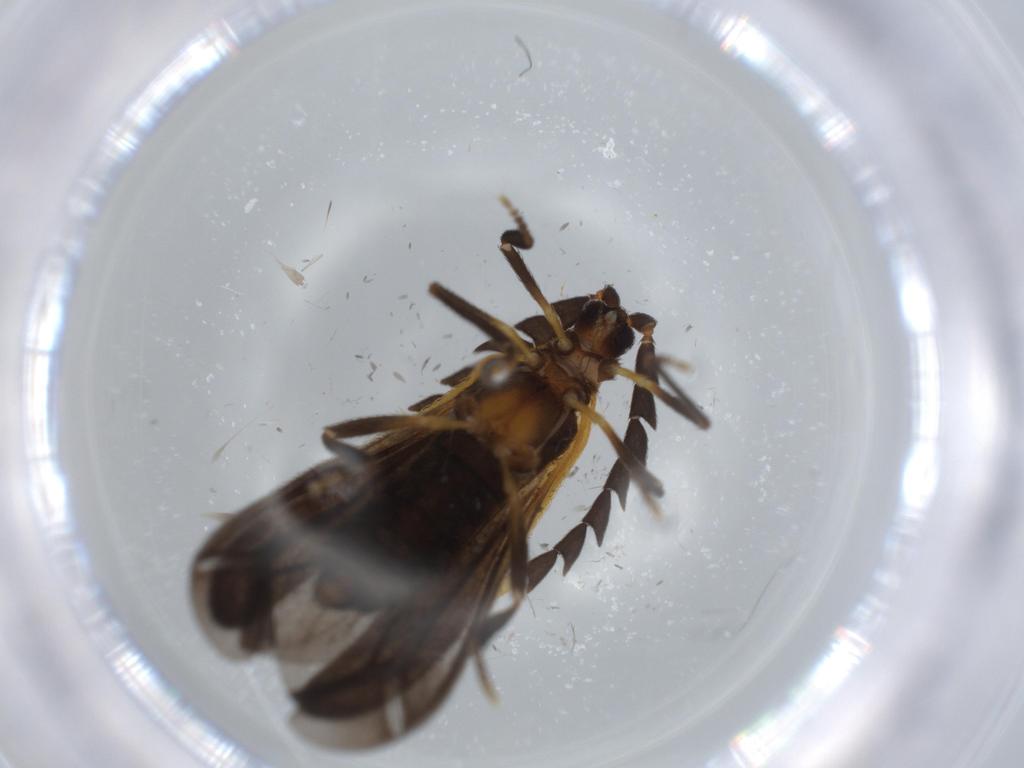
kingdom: Animalia
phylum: Arthropoda
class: Insecta
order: Coleoptera
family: Lycidae
